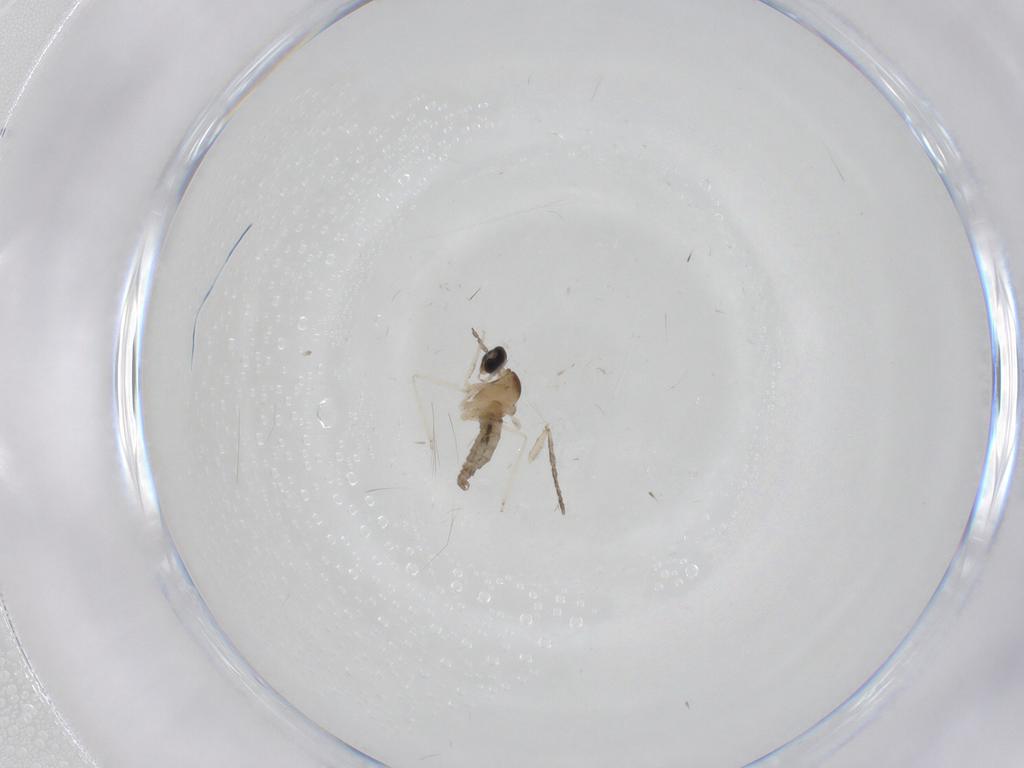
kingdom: Animalia
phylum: Arthropoda
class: Insecta
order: Diptera
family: Cecidomyiidae
